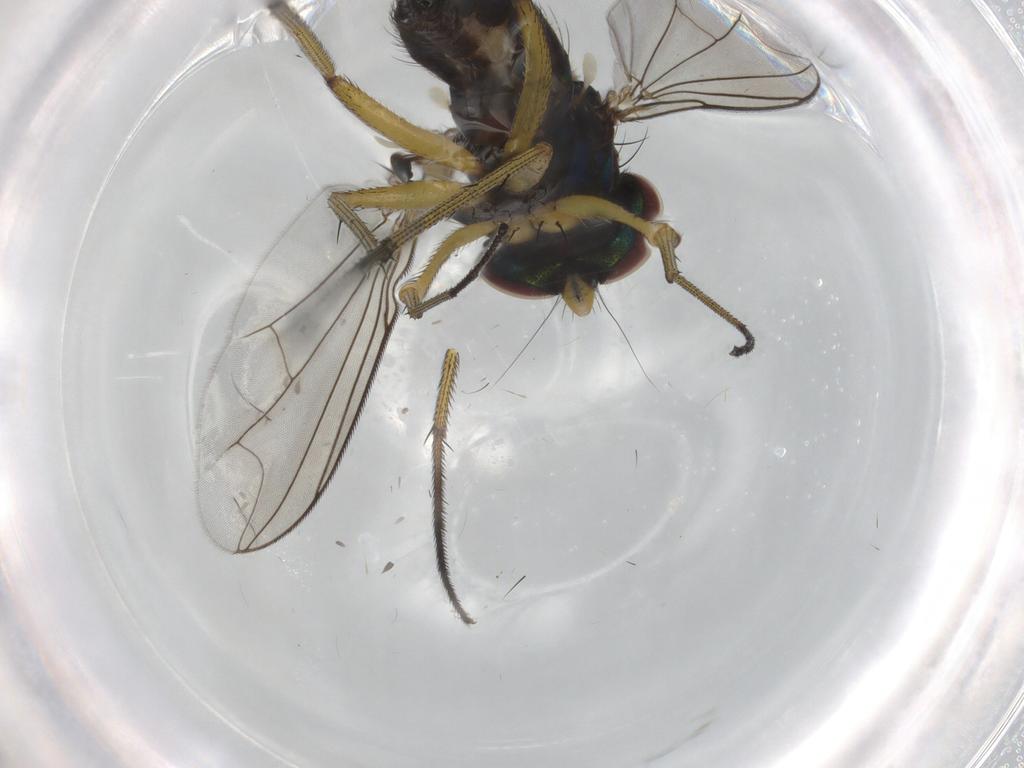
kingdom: Animalia
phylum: Arthropoda
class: Insecta
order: Diptera
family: Dolichopodidae
